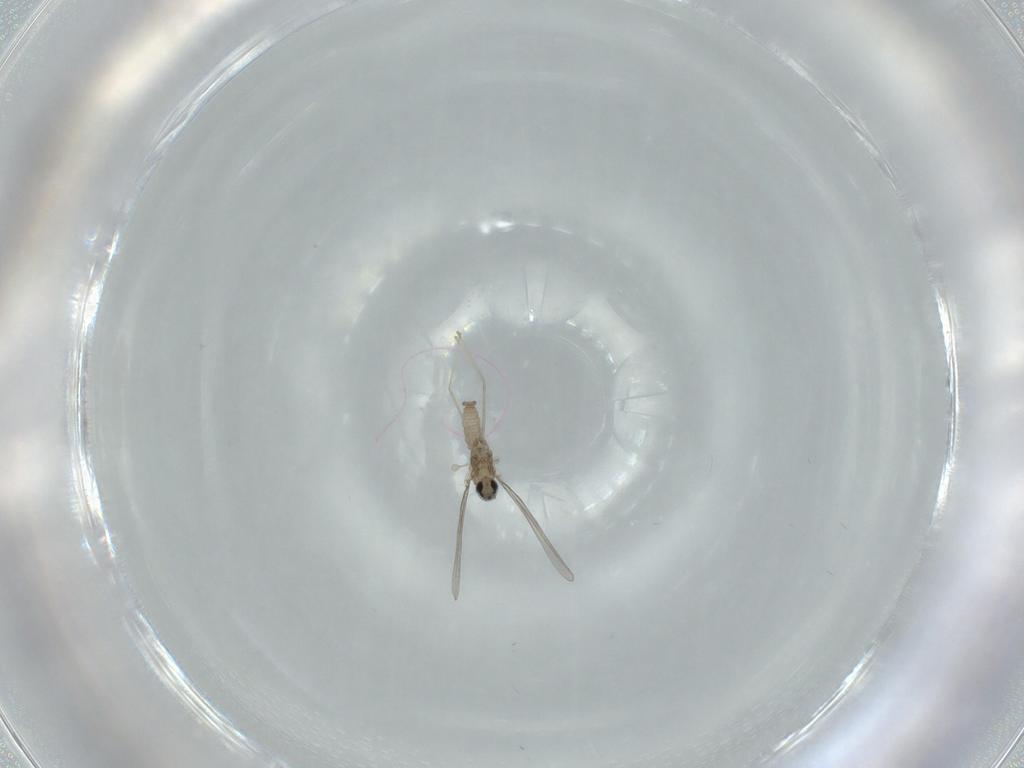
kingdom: Animalia
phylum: Arthropoda
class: Insecta
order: Diptera
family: Cecidomyiidae
